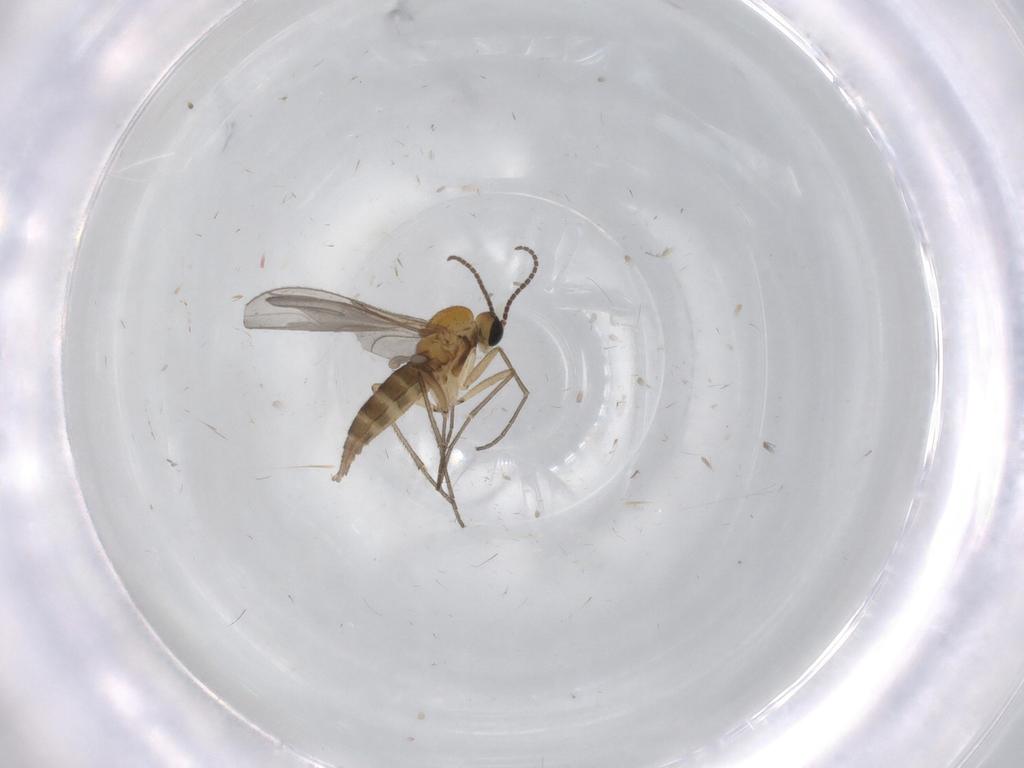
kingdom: Animalia
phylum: Arthropoda
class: Insecta
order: Diptera
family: Sciaridae
